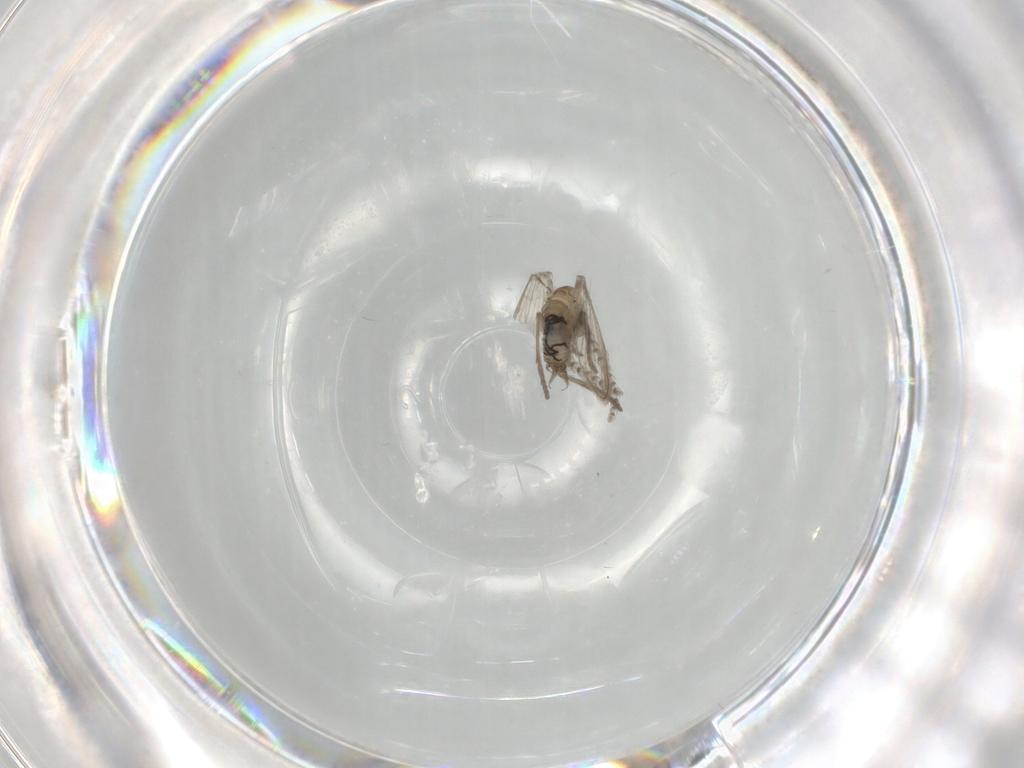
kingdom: Animalia
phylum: Arthropoda
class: Insecta
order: Diptera
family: Psychodidae
